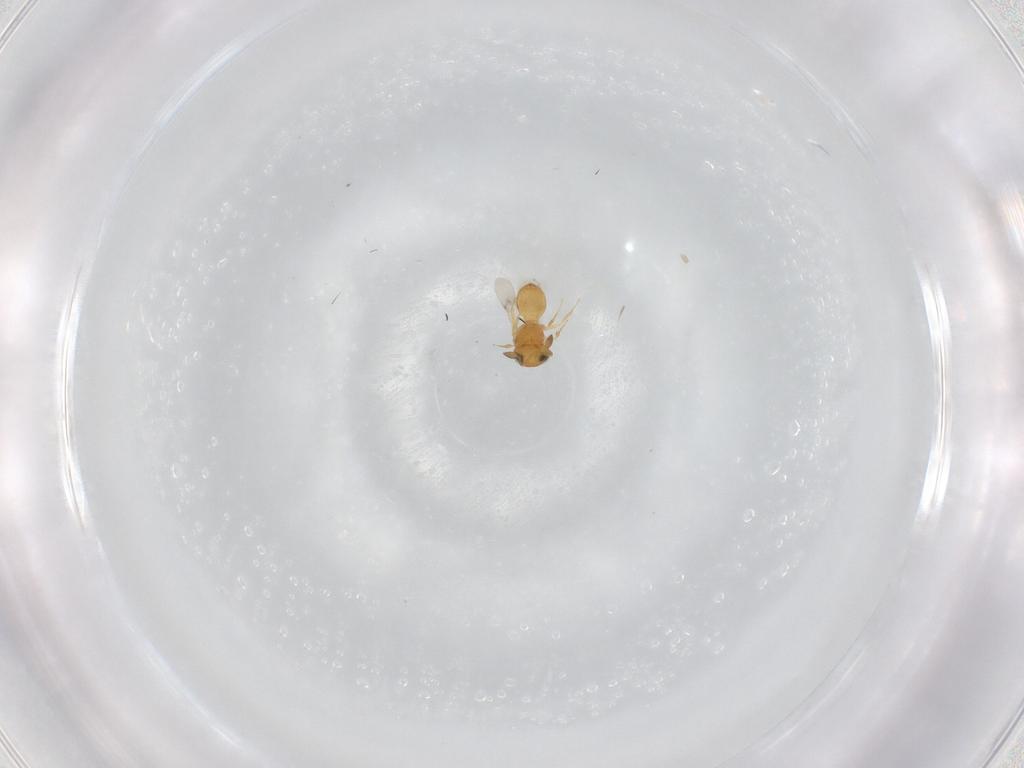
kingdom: Animalia
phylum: Arthropoda
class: Insecta
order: Hymenoptera
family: Scelionidae
